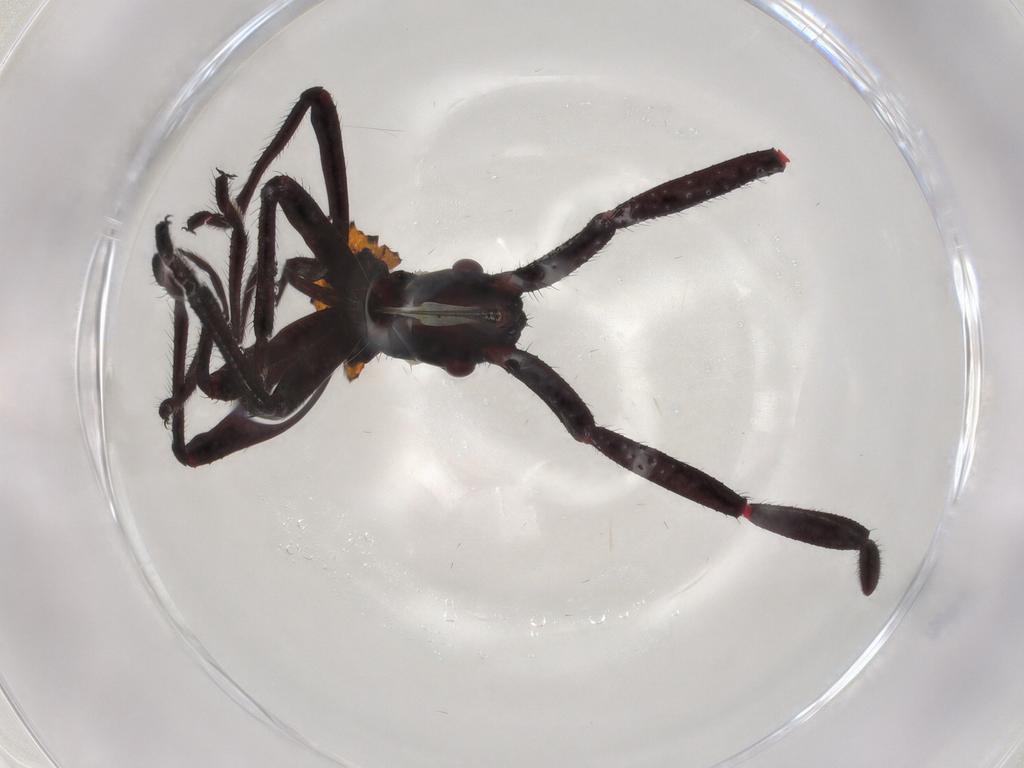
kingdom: Animalia
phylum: Arthropoda
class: Insecta
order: Hemiptera
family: Coreidae
